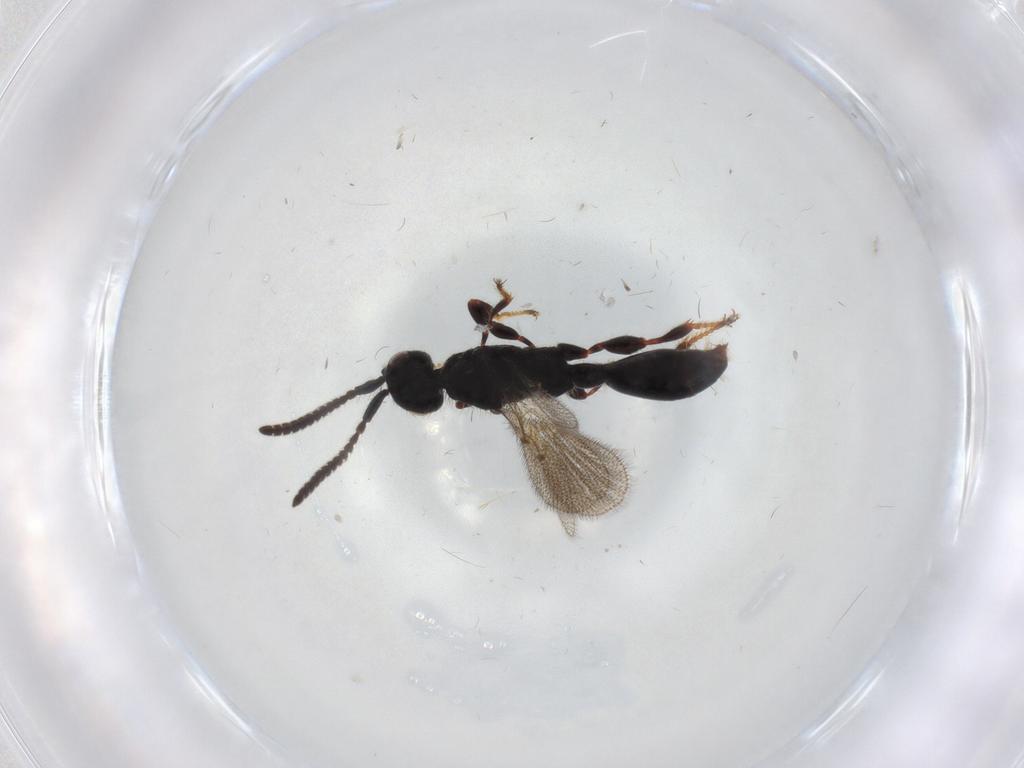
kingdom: Animalia
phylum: Arthropoda
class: Insecta
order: Hymenoptera
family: Diapriidae
